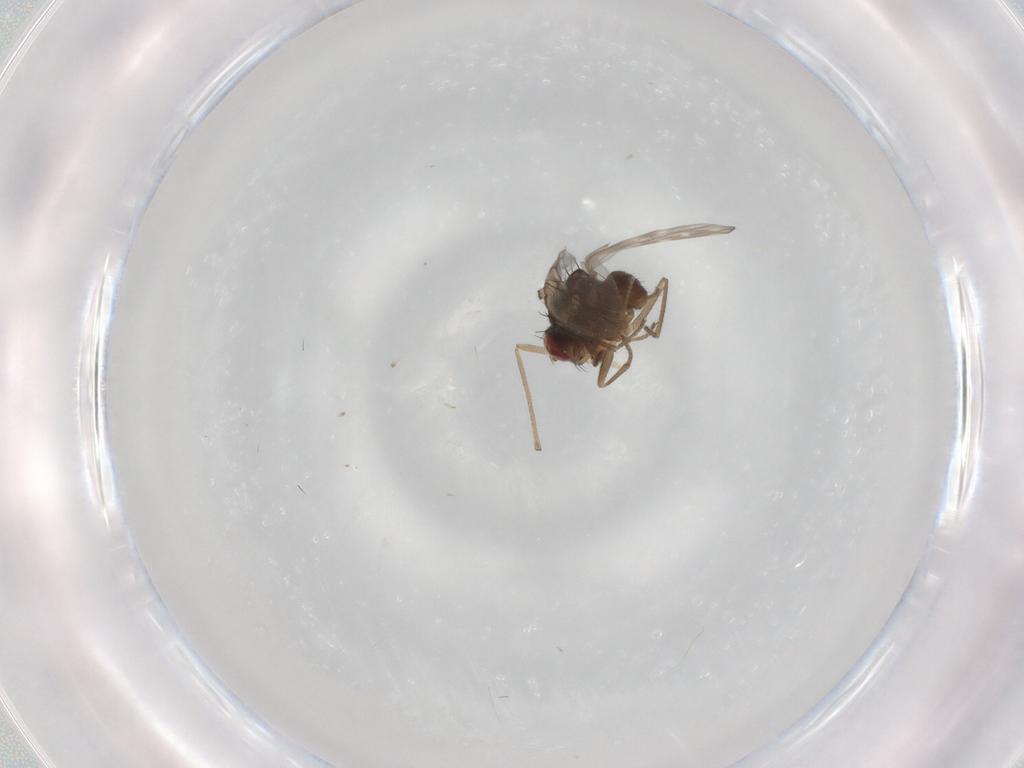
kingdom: Animalia
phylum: Arthropoda
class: Insecta
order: Diptera
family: Ephydridae
